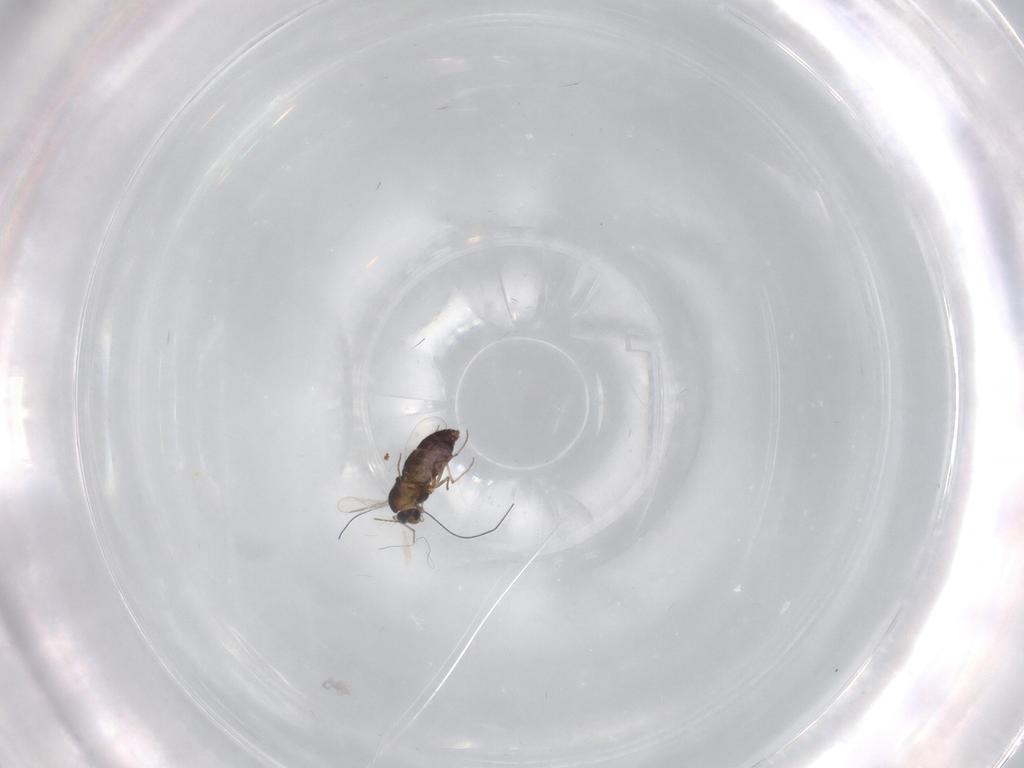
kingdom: Animalia
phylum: Arthropoda
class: Insecta
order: Diptera
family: Chironomidae
